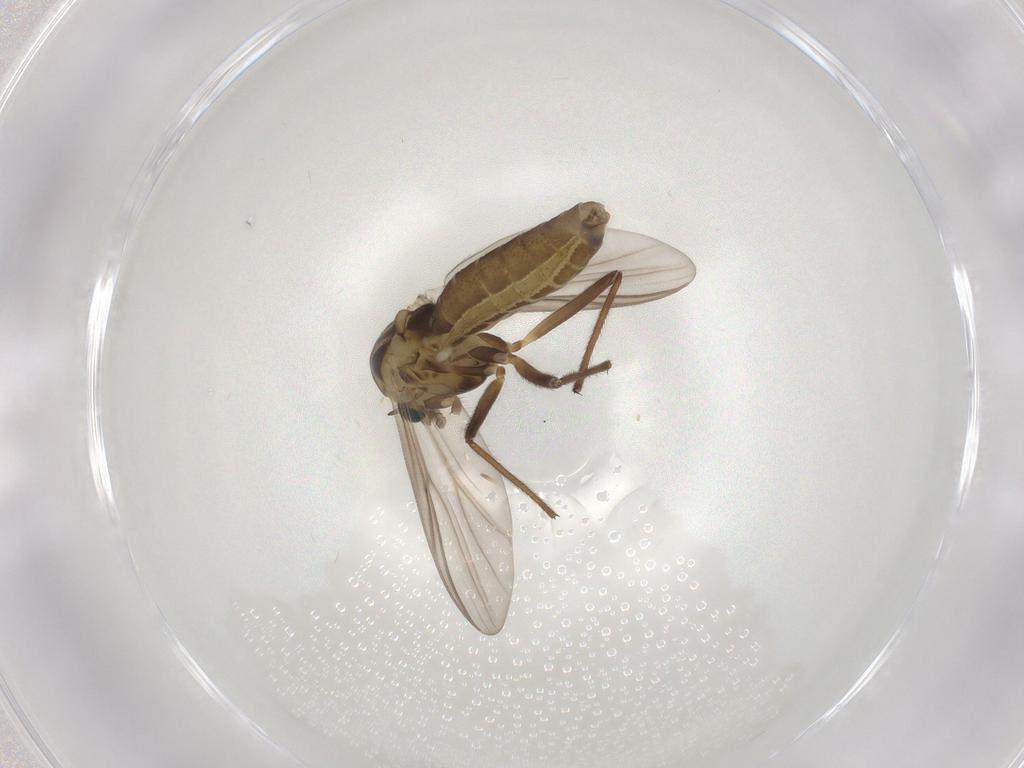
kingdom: Animalia
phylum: Arthropoda
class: Insecta
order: Diptera
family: Chironomidae
